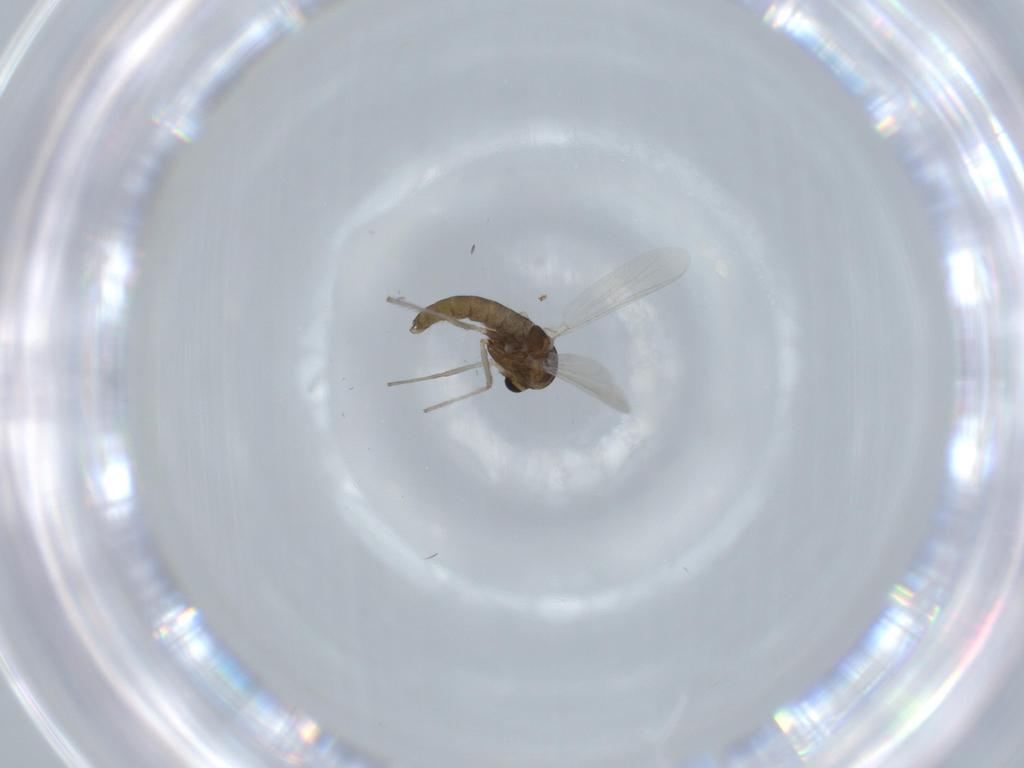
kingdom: Animalia
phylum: Arthropoda
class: Insecta
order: Diptera
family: Chironomidae
